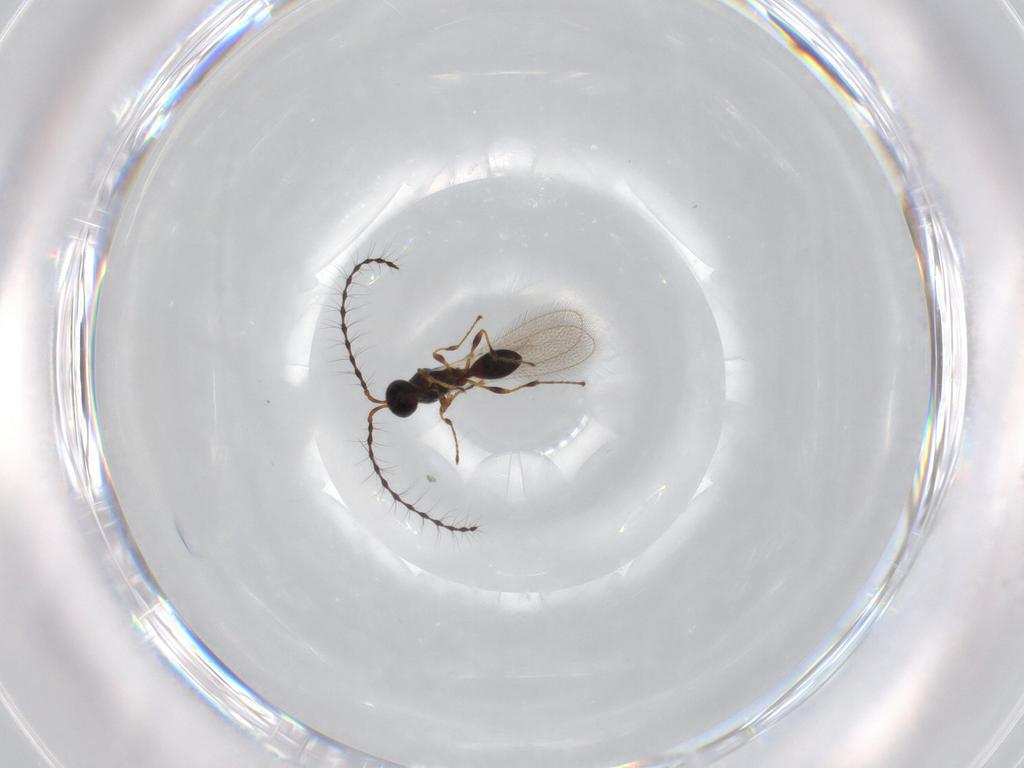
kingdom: Animalia
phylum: Arthropoda
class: Insecta
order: Hymenoptera
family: Diapriidae
